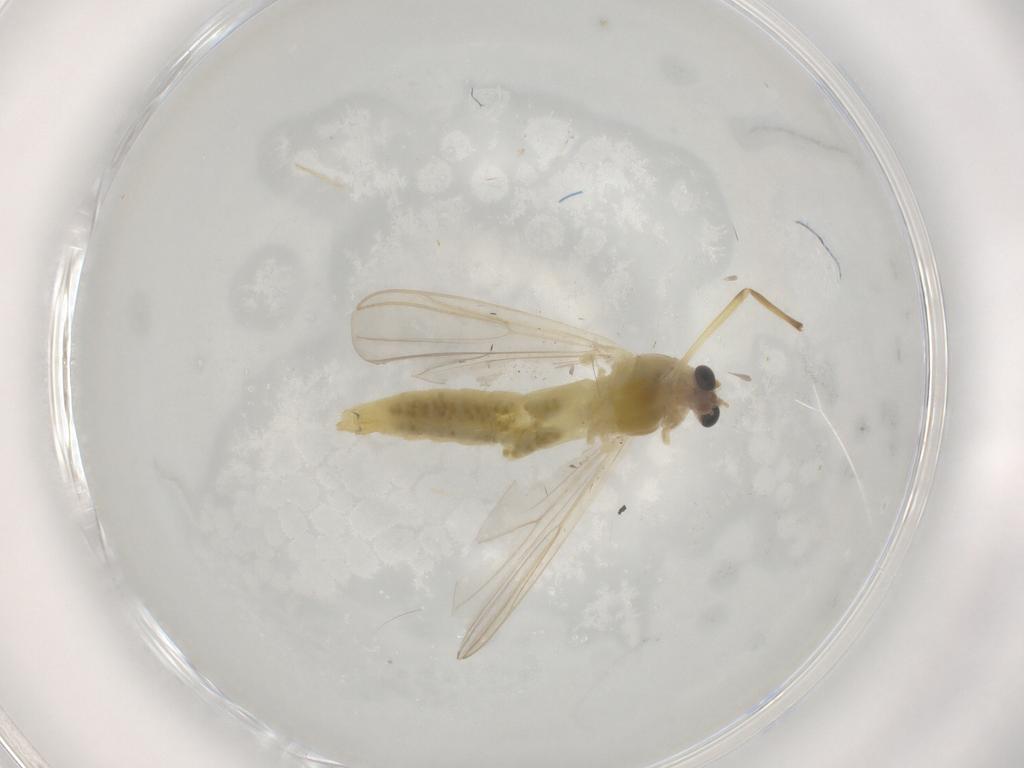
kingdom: Animalia
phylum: Arthropoda
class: Insecta
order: Diptera
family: Chironomidae
